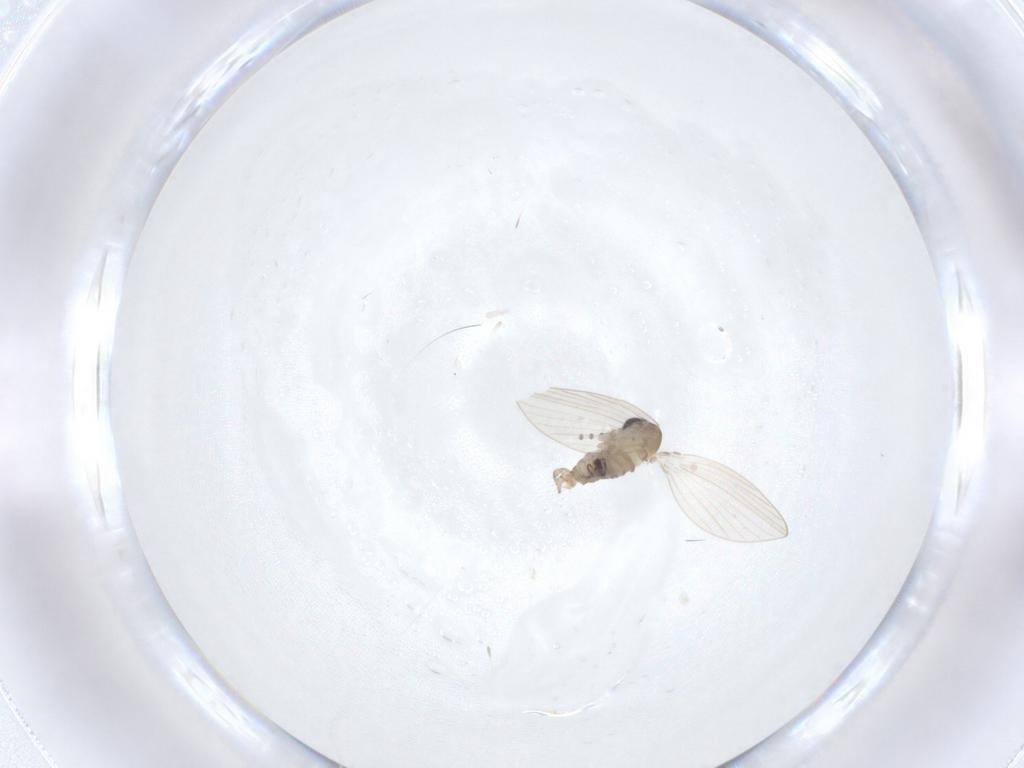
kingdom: Animalia
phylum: Arthropoda
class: Insecta
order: Diptera
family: Psychodidae
